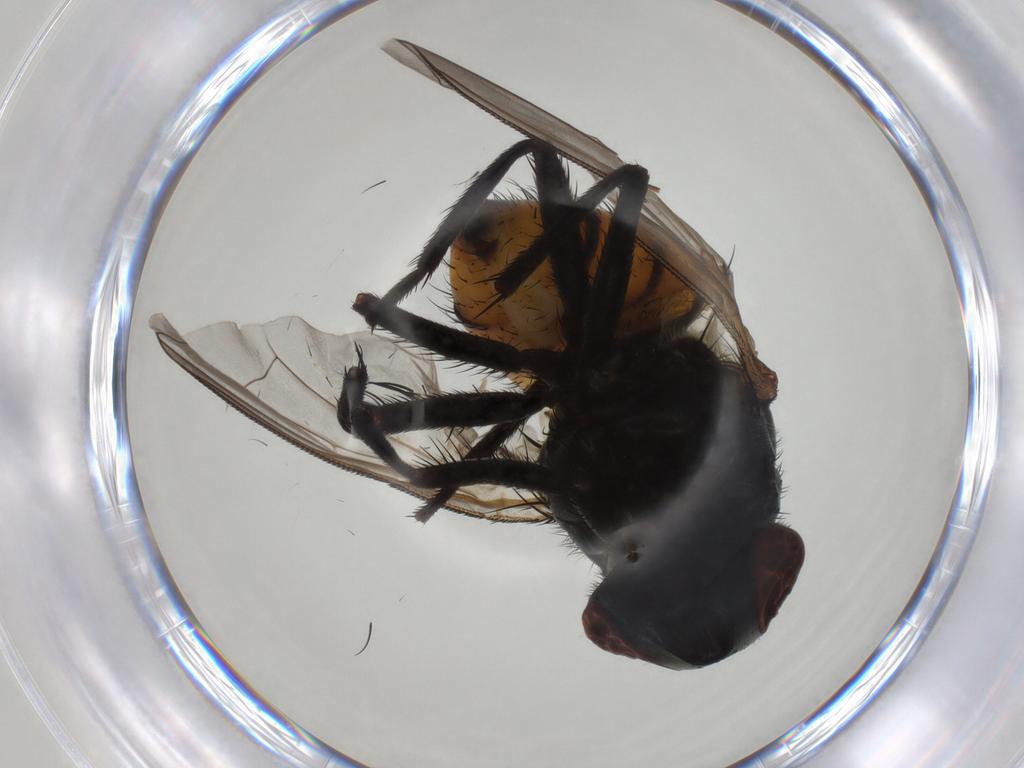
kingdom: Animalia
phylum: Arthropoda
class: Insecta
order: Diptera
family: Muscidae
